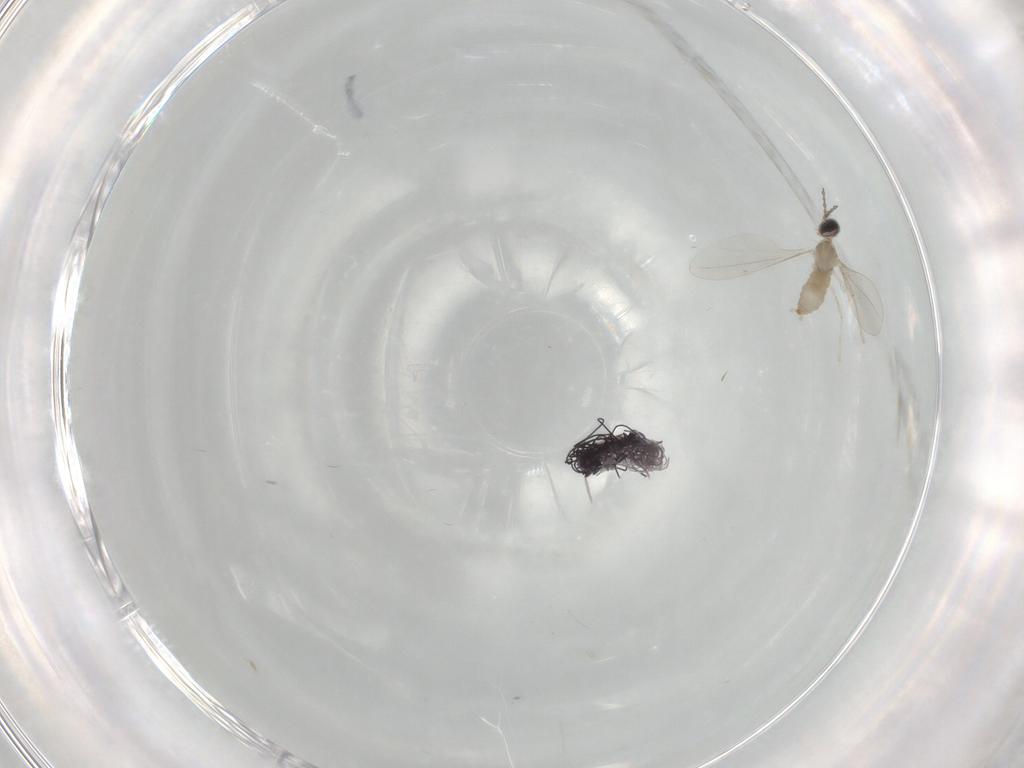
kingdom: Animalia
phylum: Arthropoda
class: Insecta
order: Diptera
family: Cecidomyiidae
